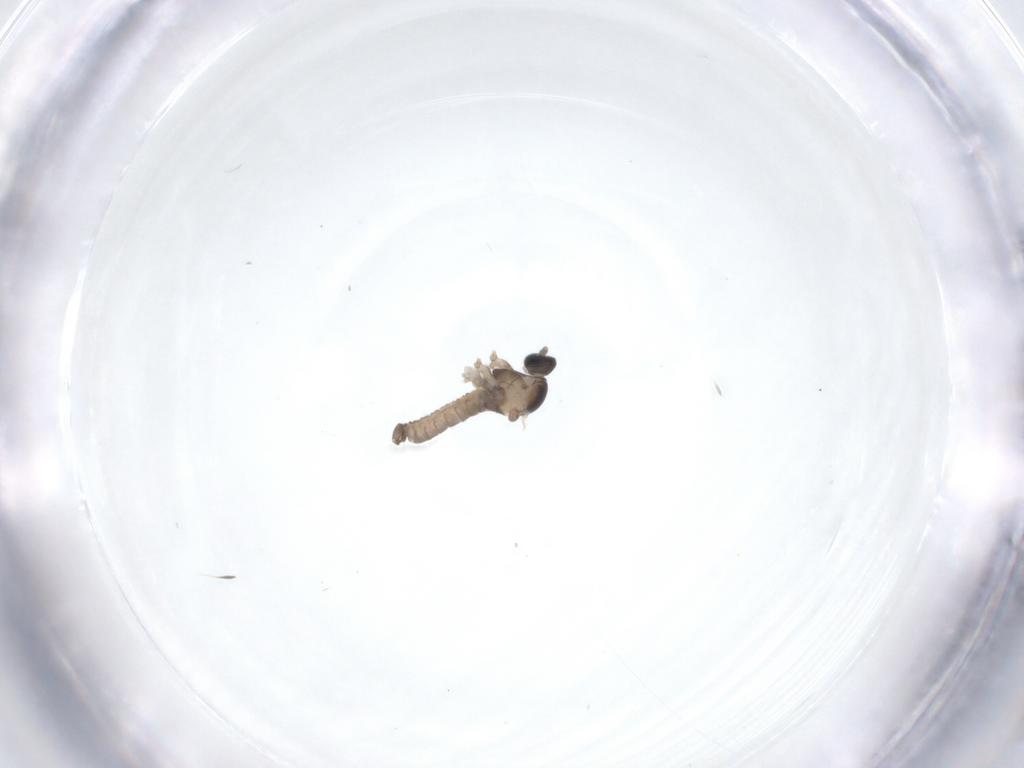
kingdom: Animalia
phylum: Arthropoda
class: Insecta
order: Diptera
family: Cecidomyiidae
